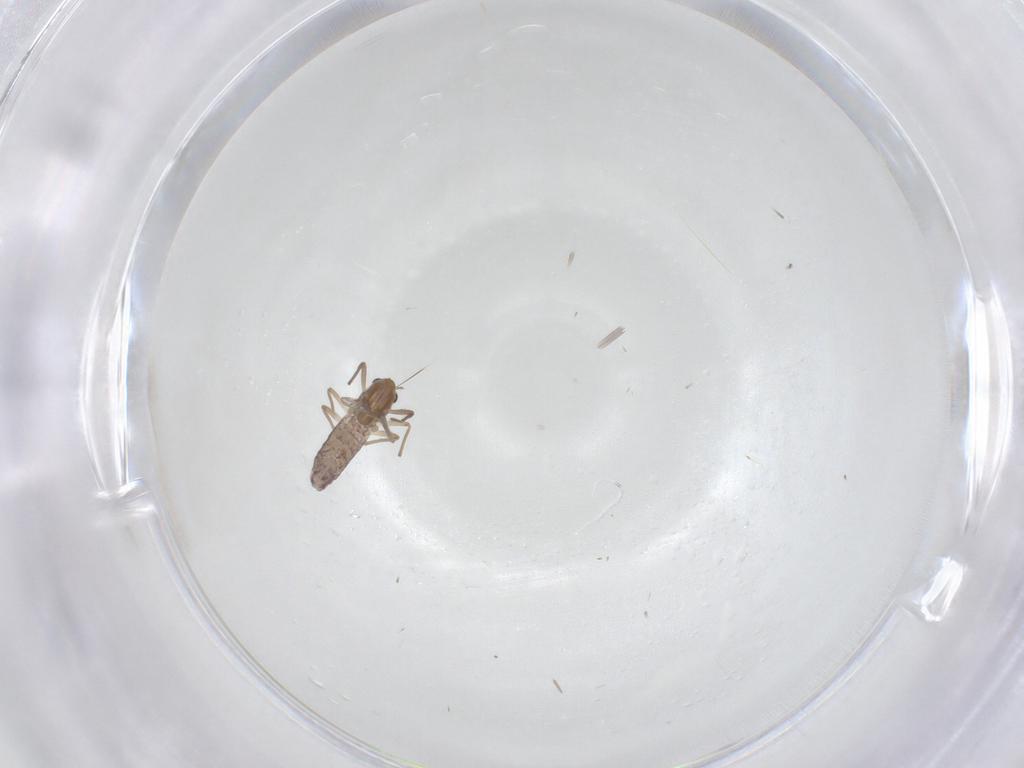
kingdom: Animalia
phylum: Arthropoda
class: Insecta
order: Diptera
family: Chironomidae
